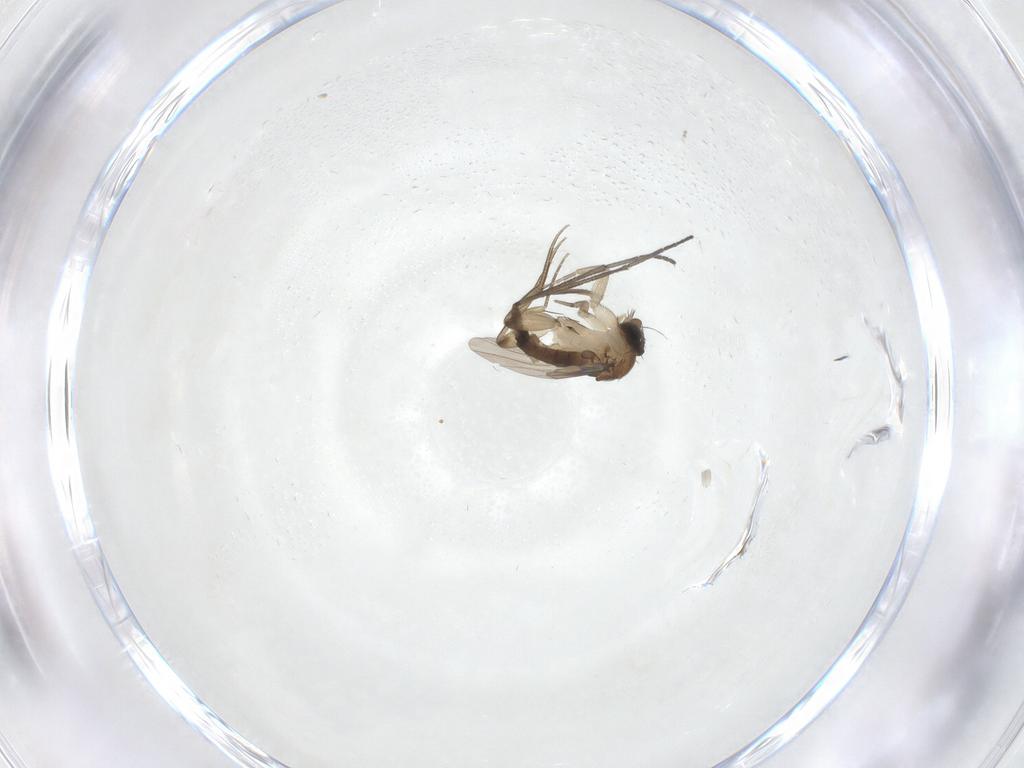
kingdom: Animalia
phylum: Arthropoda
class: Insecta
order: Diptera
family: Phoridae
